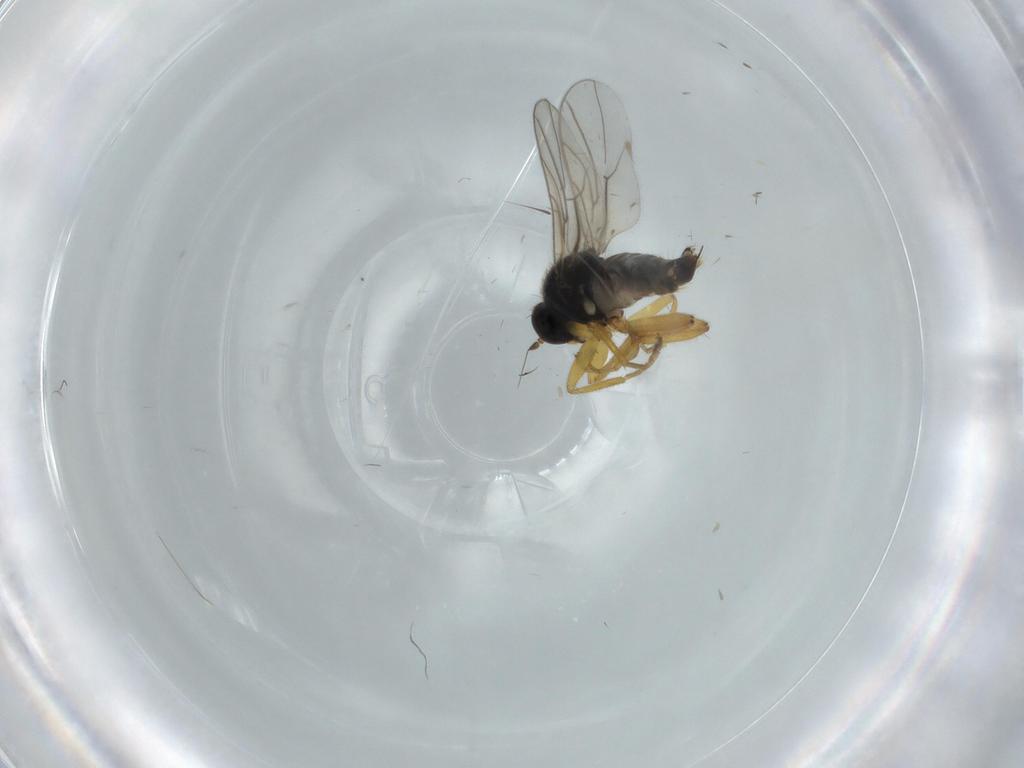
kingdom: Animalia
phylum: Arthropoda
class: Insecta
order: Diptera
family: Hybotidae
